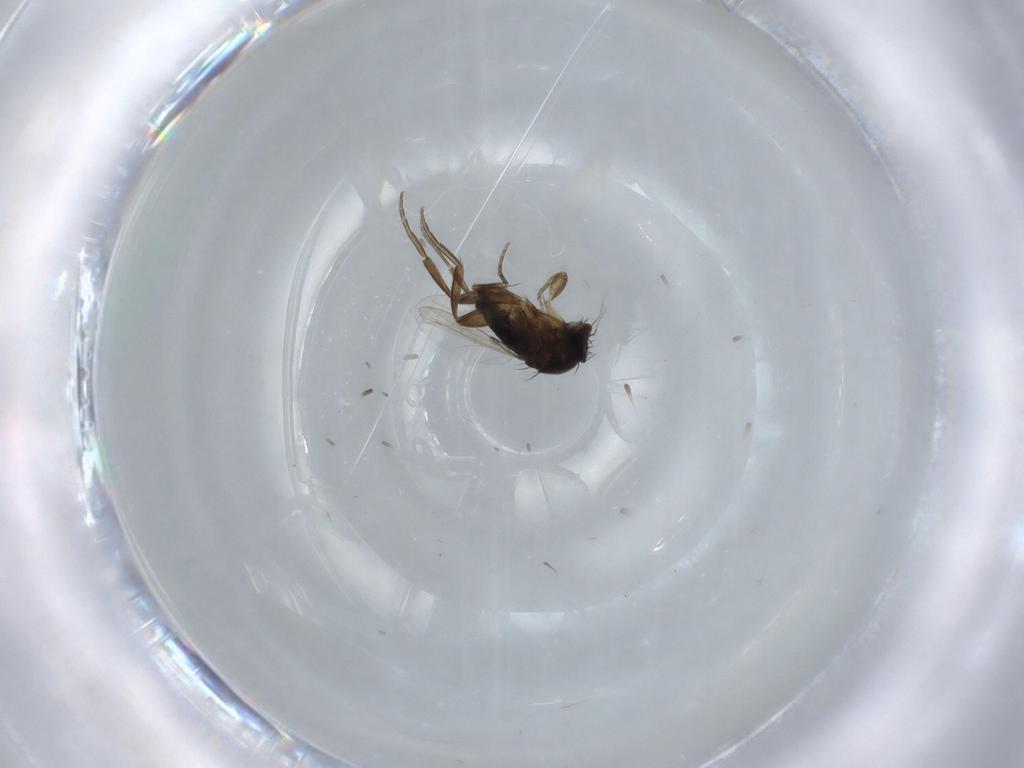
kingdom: Animalia
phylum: Arthropoda
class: Insecta
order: Diptera
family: Phoridae
